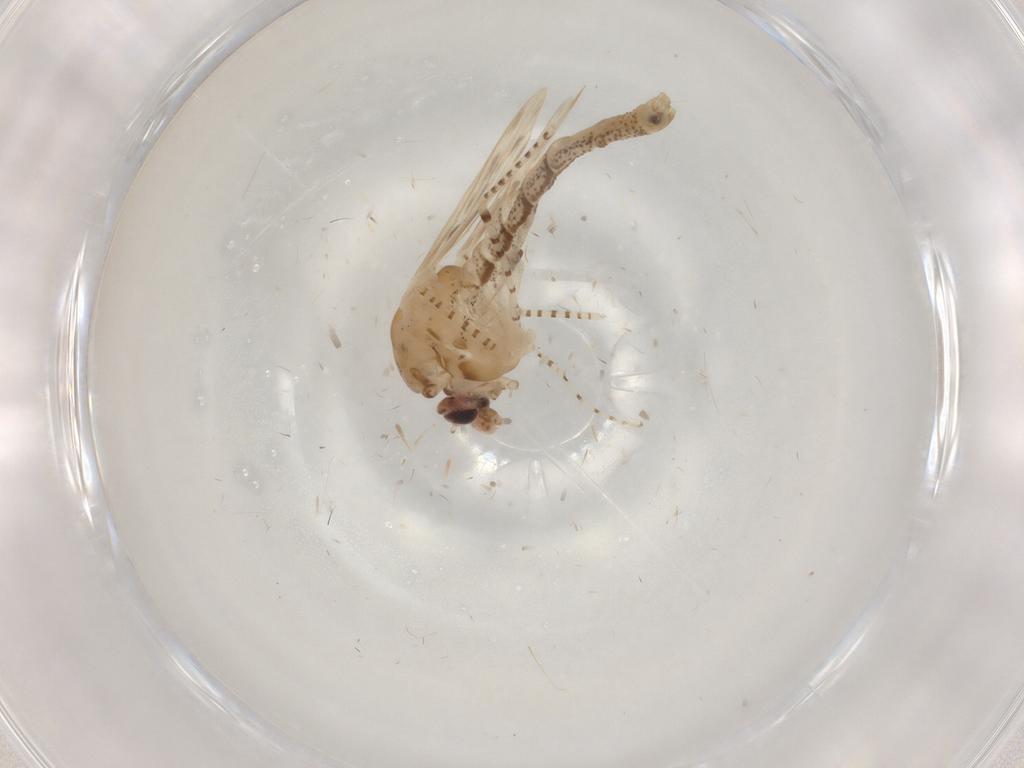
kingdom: Animalia
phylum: Arthropoda
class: Insecta
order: Diptera
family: Chaoboridae
